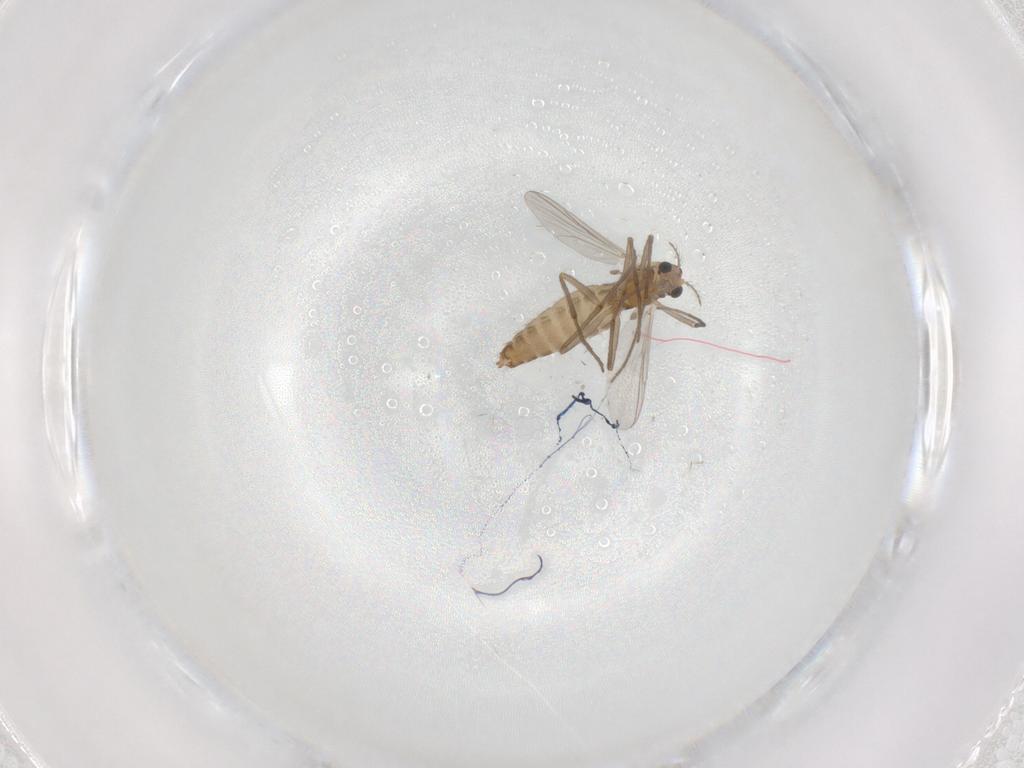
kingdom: Animalia
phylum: Arthropoda
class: Insecta
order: Diptera
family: Chironomidae
